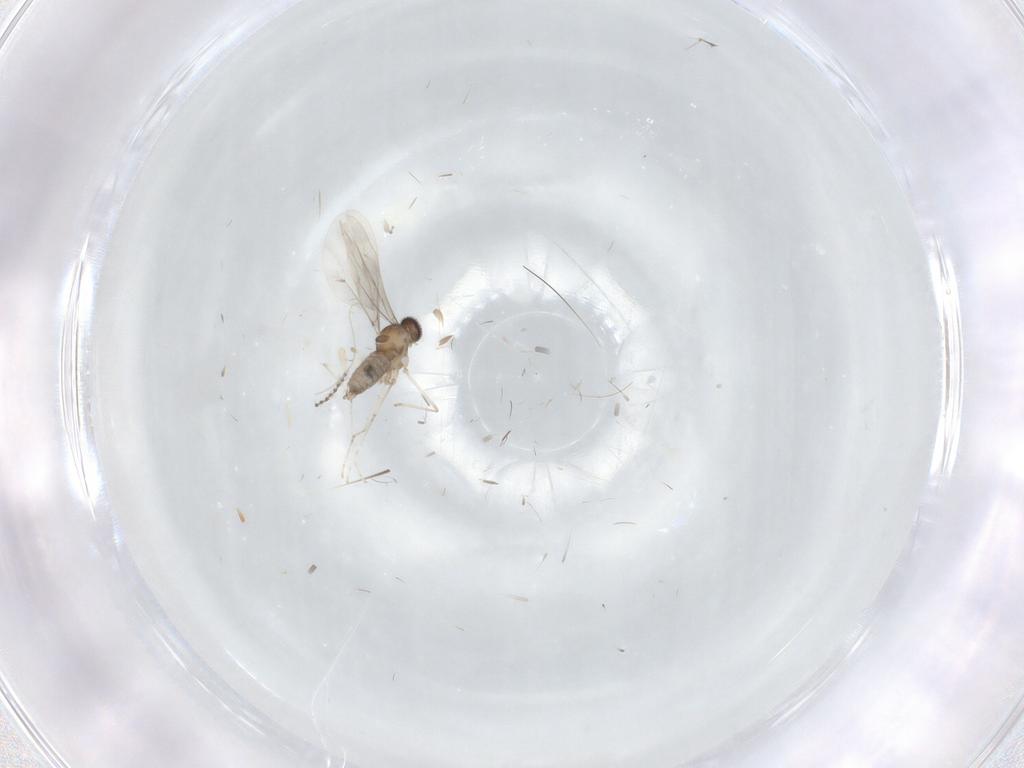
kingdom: Animalia
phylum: Arthropoda
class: Insecta
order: Diptera
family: Cecidomyiidae
